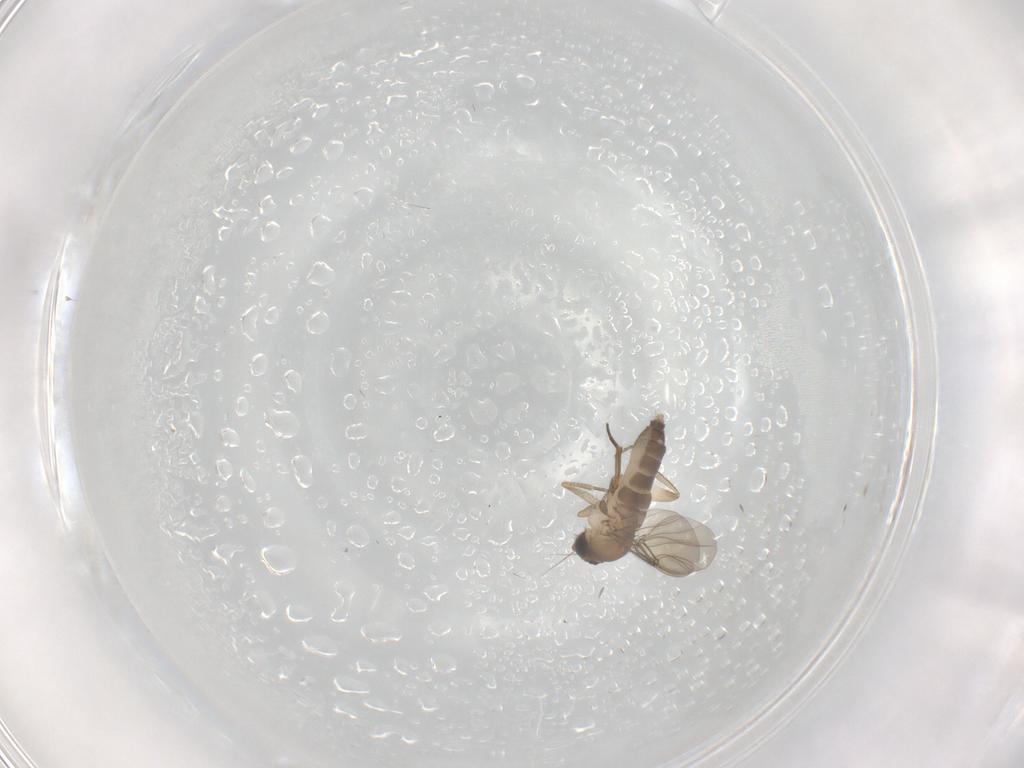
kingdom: Animalia
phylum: Arthropoda
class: Insecta
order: Diptera
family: Phoridae
